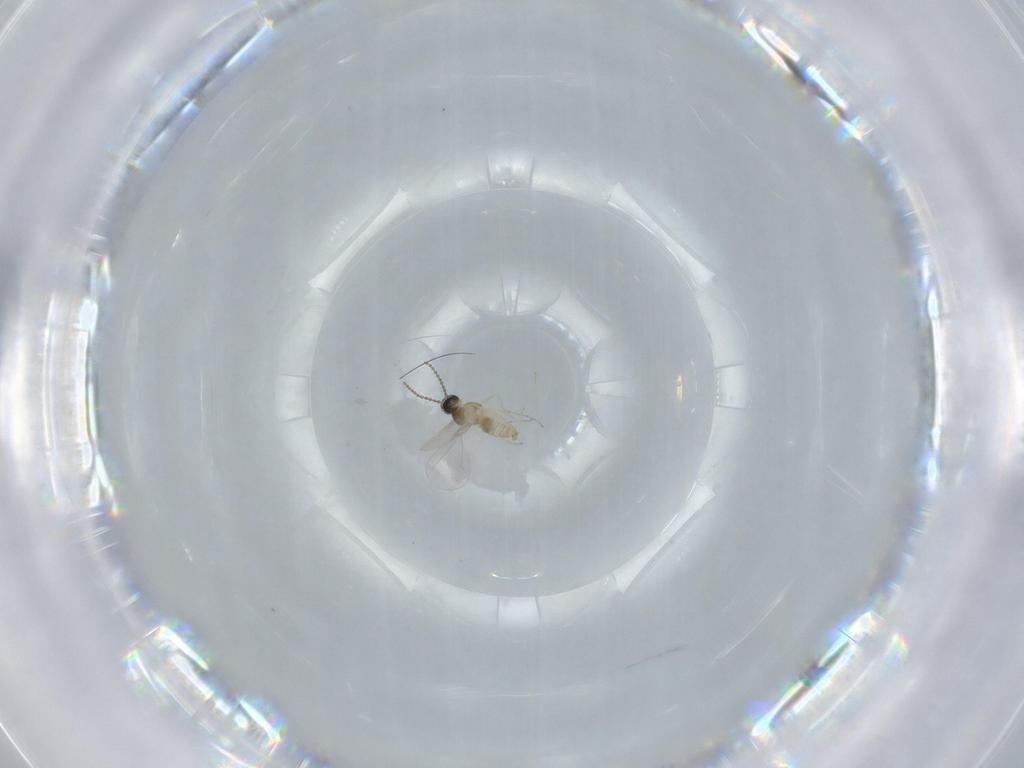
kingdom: Animalia
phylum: Arthropoda
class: Insecta
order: Diptera
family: Cecidomyiidae
